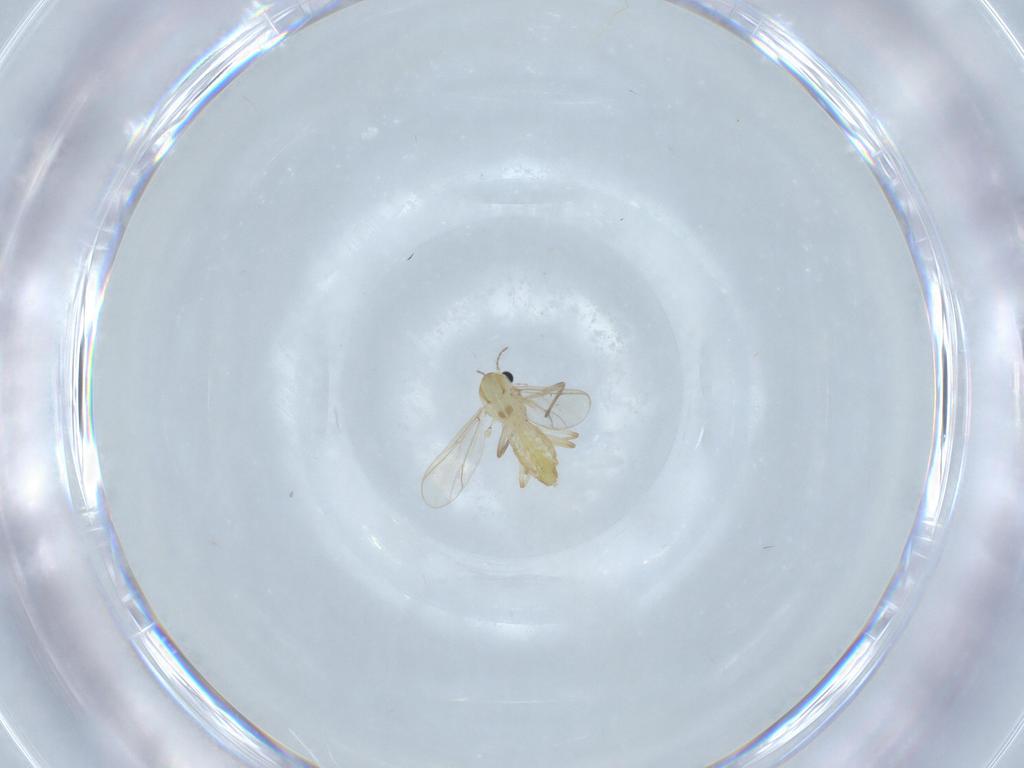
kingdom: Animalia
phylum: Arthropoda
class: Insecta
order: Diptera
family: Chironomidae
